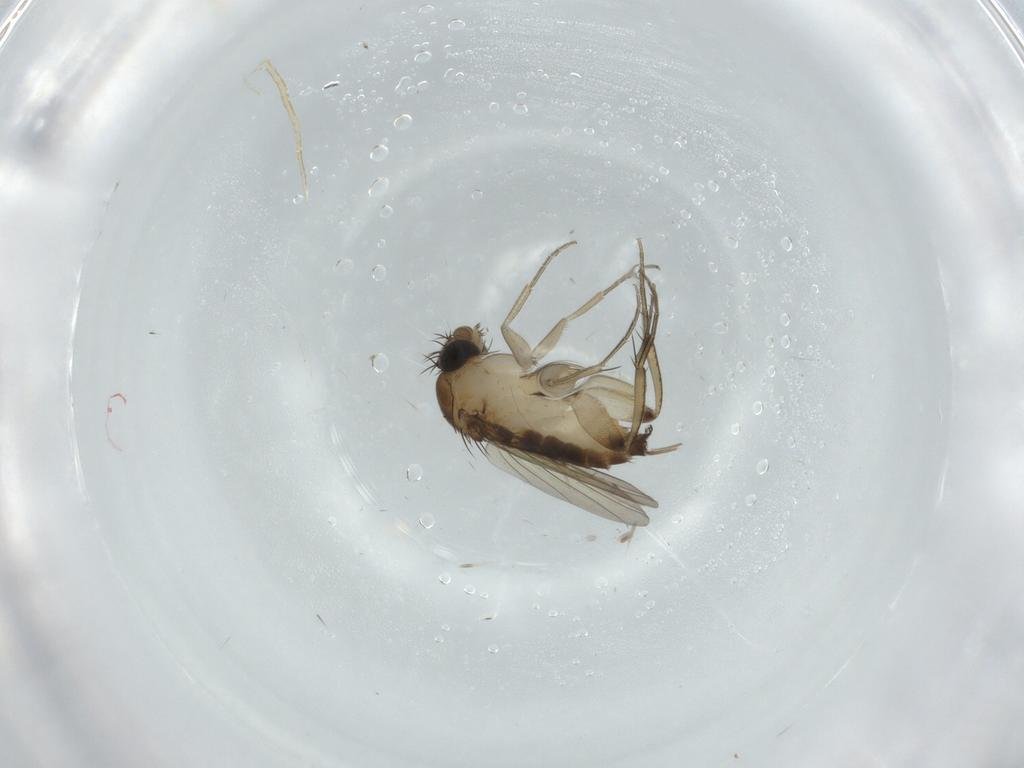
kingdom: Animalia
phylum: Arthropoda
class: Insecta
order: Diptera
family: Phoridae
